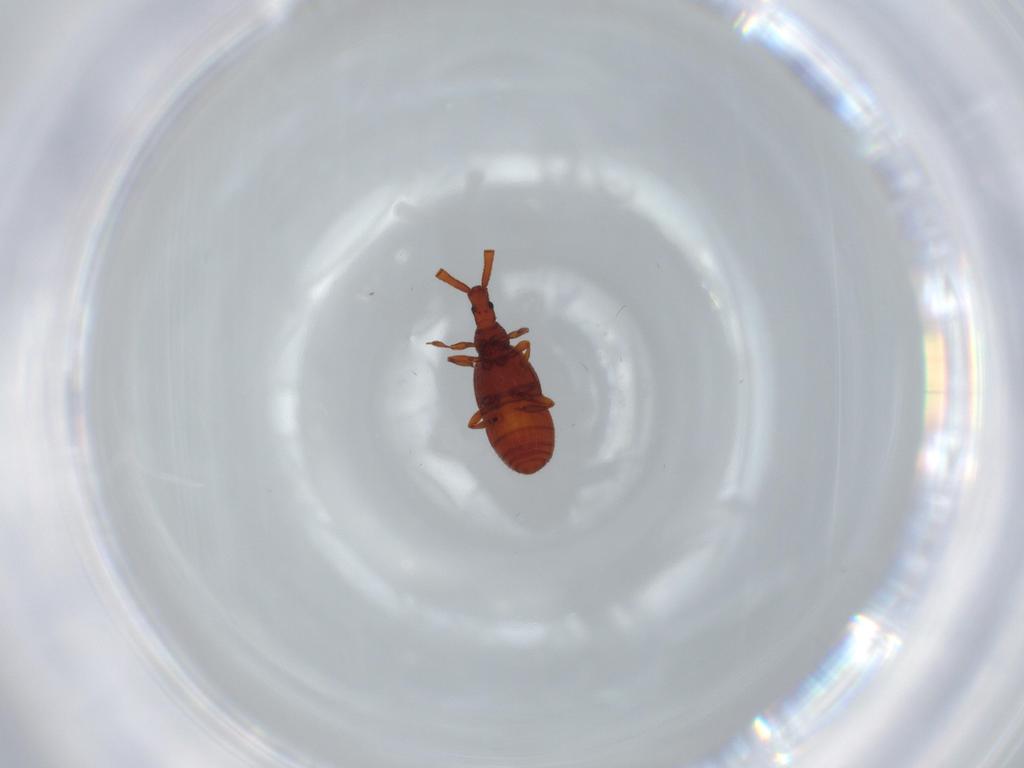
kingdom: Animalia
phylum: Arthropoda
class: Insecta
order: Coleoptera
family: Staphylinidae
